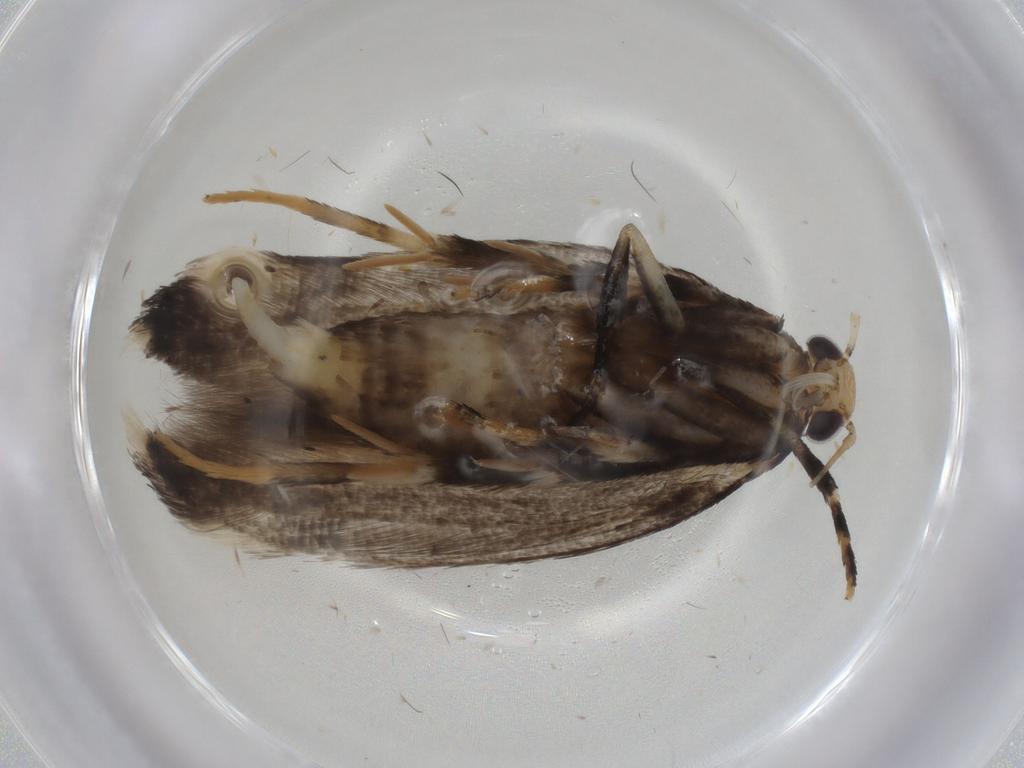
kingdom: Animalia
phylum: Arthropoda
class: Insecta
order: Lepidoptera
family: Cosmopterigidae
